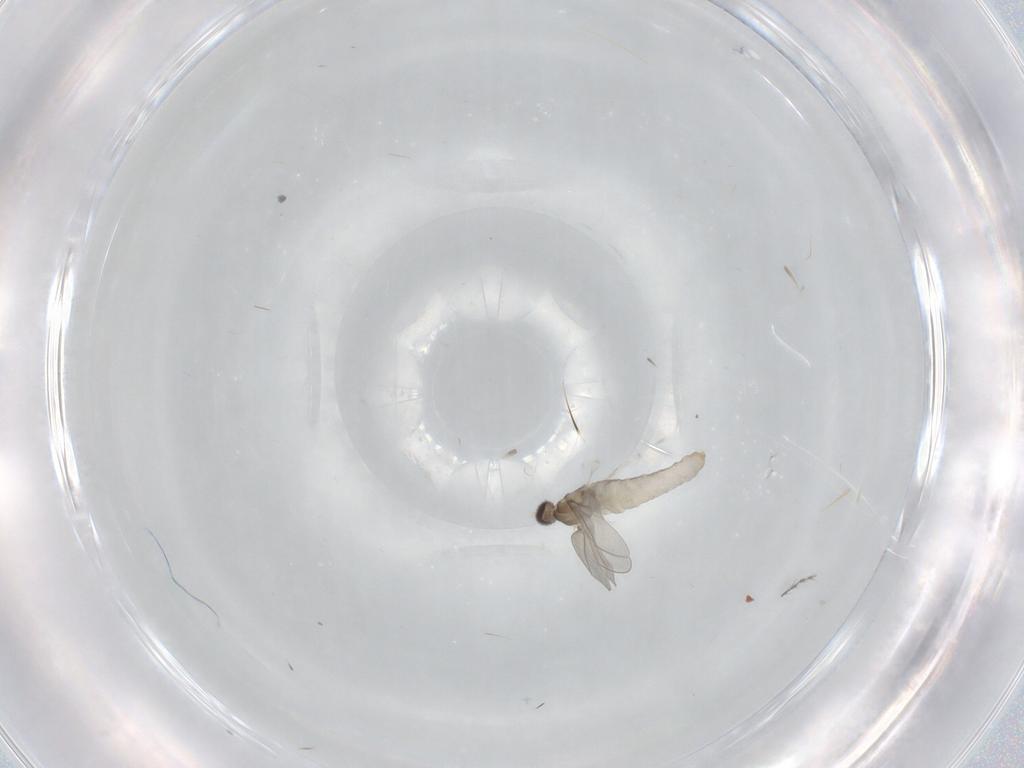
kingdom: Animalia
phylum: Arthropoda
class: Insecta
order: Diptera
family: Cecidomyiidae
